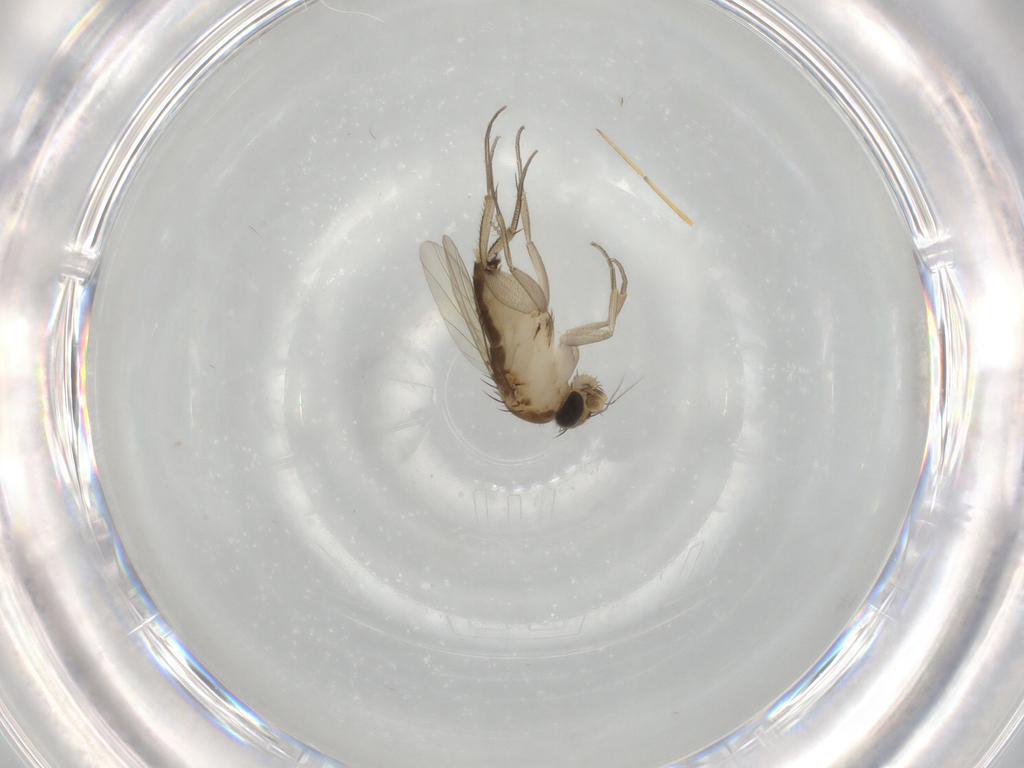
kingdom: Animalia
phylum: Arthropoda
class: Insecta
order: Diptera
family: Phoridae
